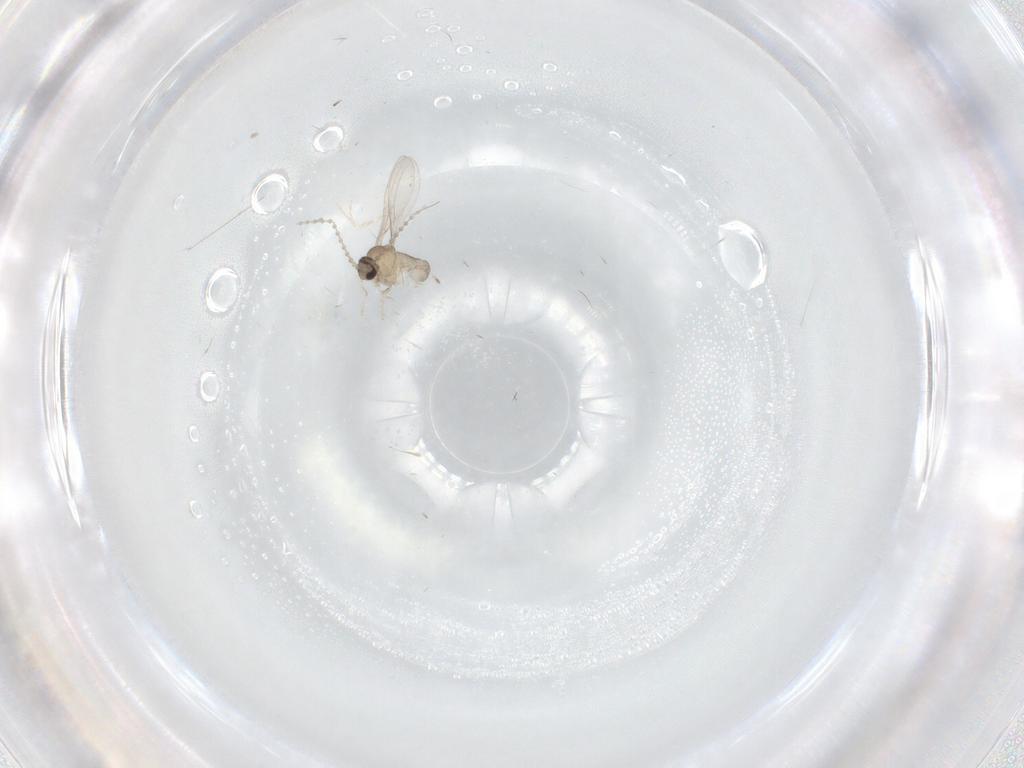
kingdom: Animalia
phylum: Arthropoda
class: Insecta
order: Diptera
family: Cecidomyiidae
